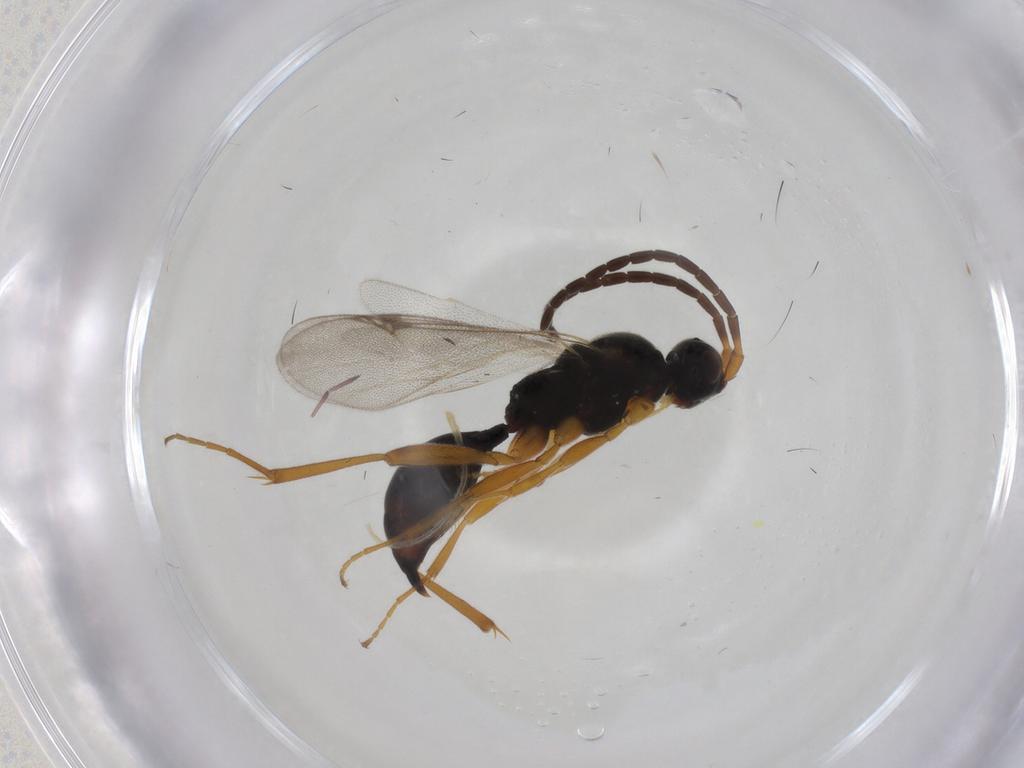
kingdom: Animalia
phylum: Arthropoda
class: Insecta
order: Hymenoptera
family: Proctotrupidae
